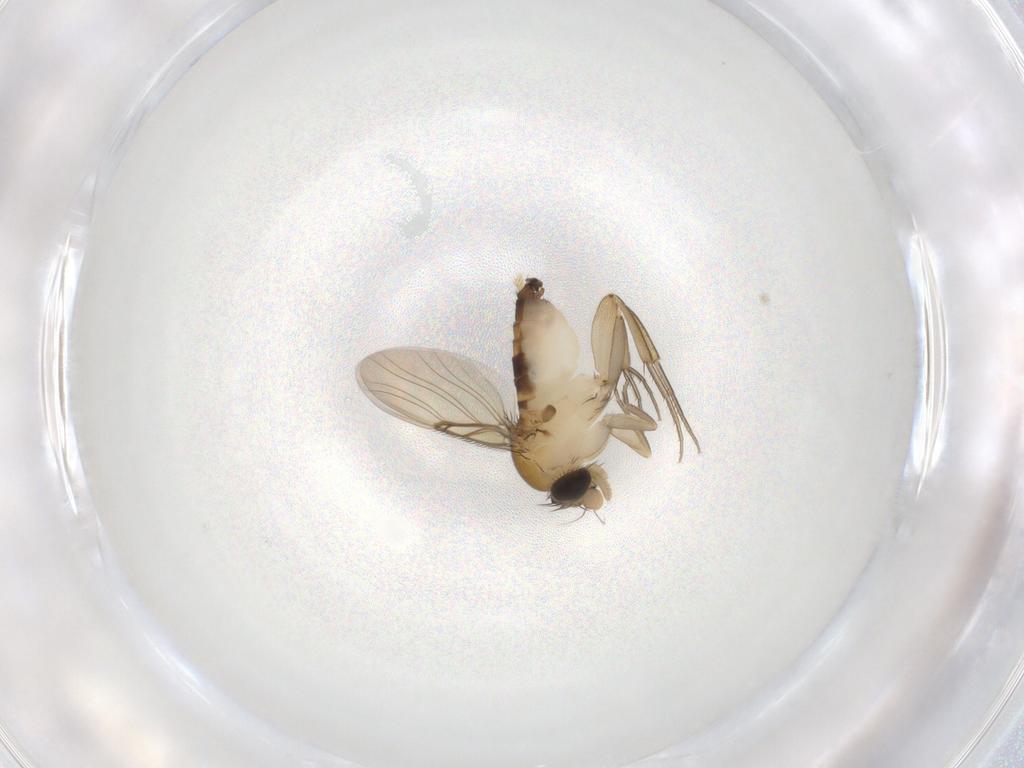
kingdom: Animalia
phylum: Arthropoda
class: Insecta
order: Diptera
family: Phoridae
